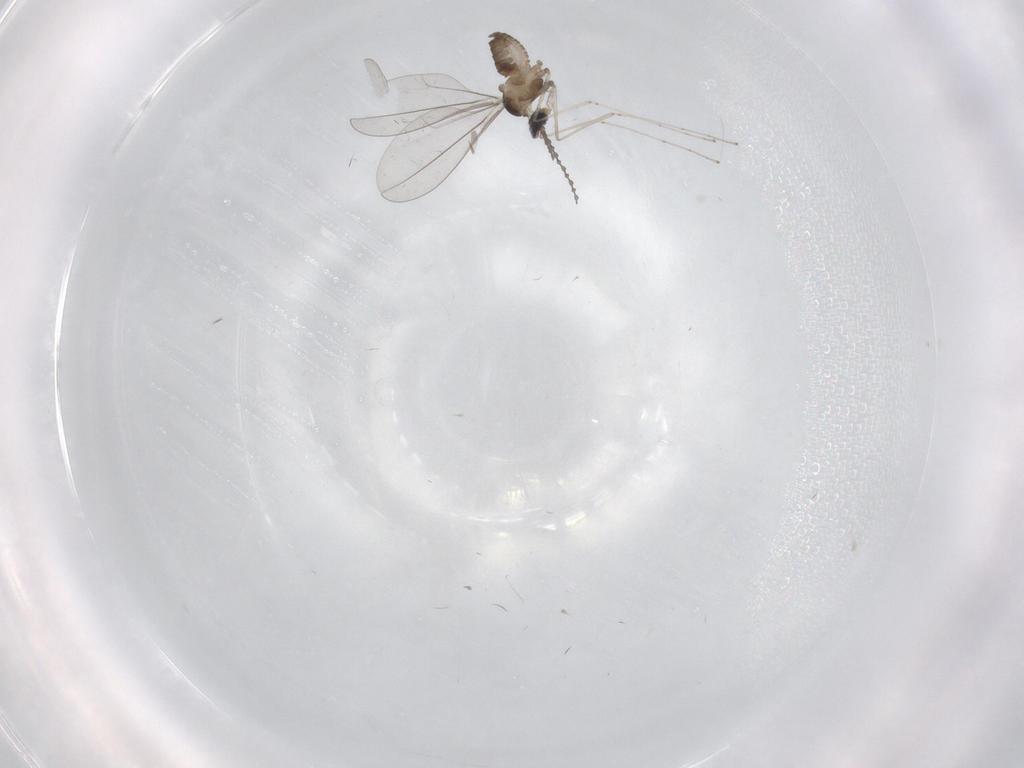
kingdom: Animalia
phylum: Arthropoda
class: Insecta
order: Diptera
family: Cecidomyiidae
